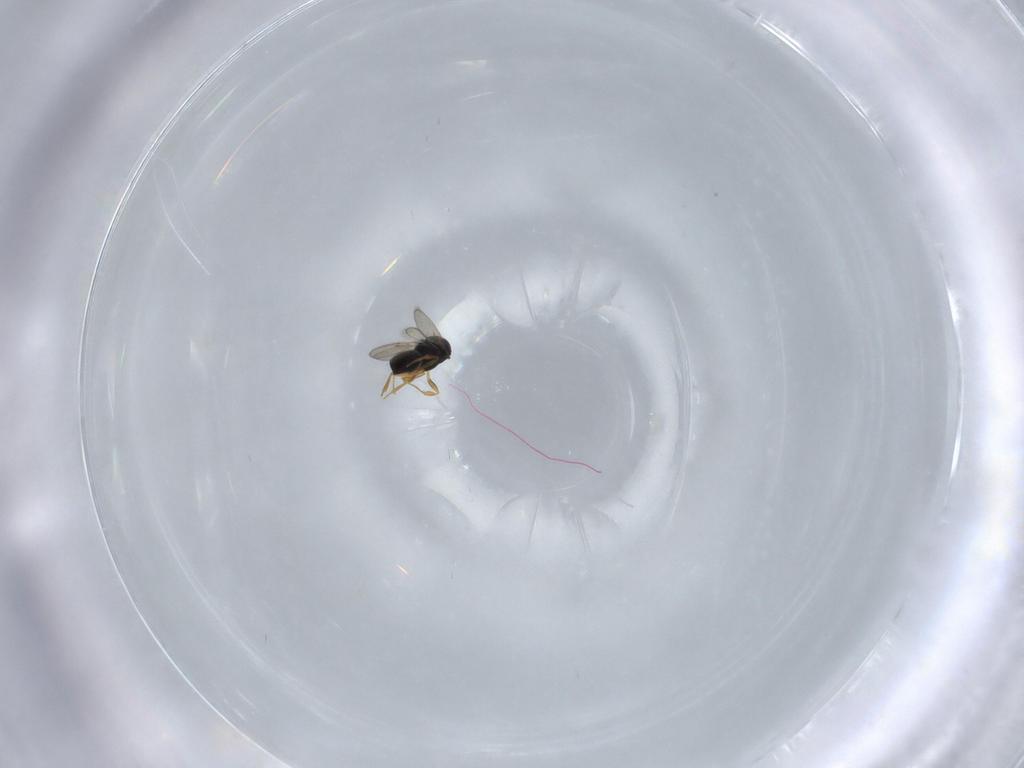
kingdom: Animalia
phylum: Arthropoda
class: Insecta
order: Hymenoptera
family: Scelionidae
